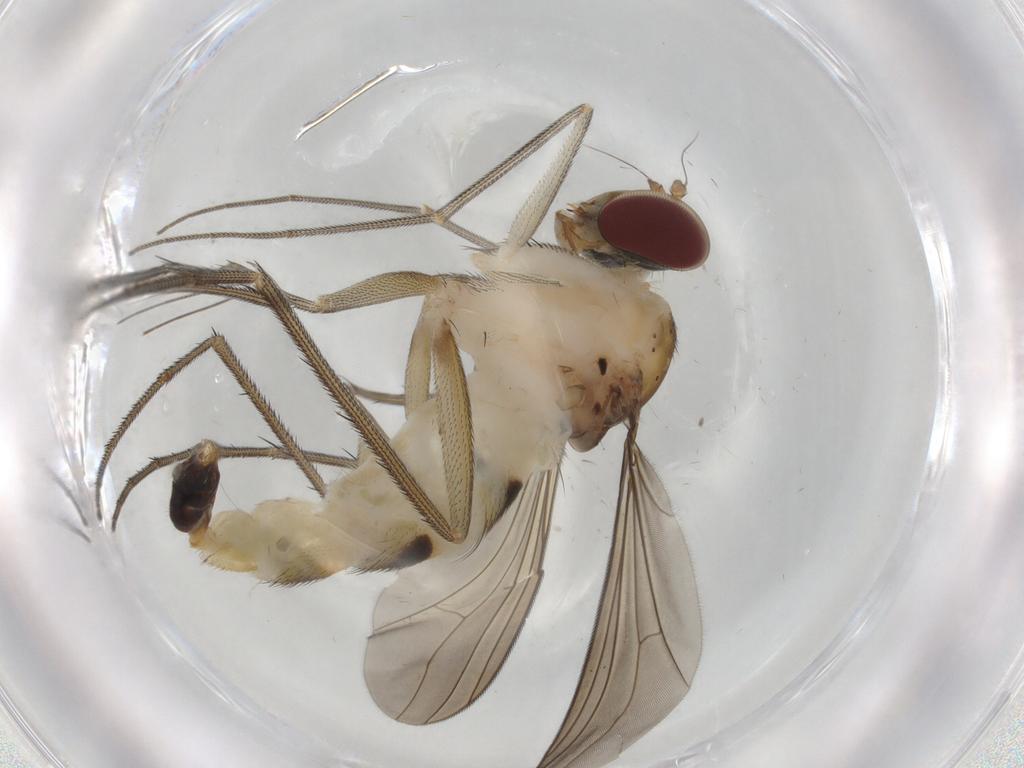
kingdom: Animalia
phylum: Arthropoda
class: Insecta
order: Diptera
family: Dolichopodidae
